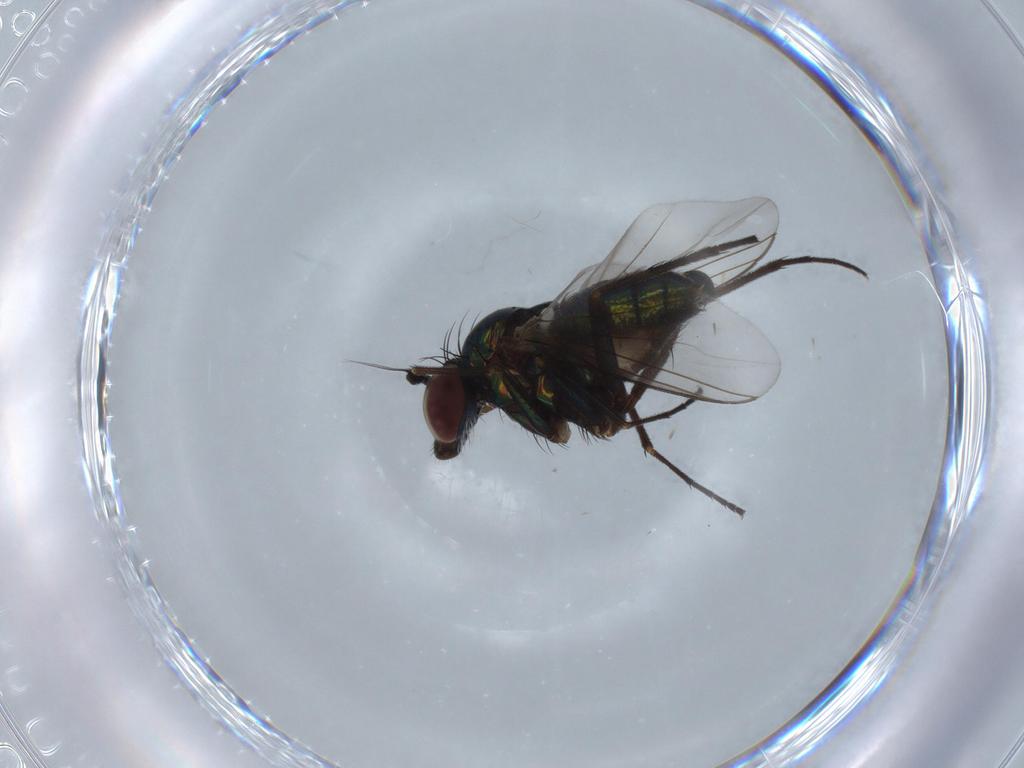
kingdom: Animalia
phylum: Arthropoda
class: Insecta
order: Diptera
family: Dolichopodidae
